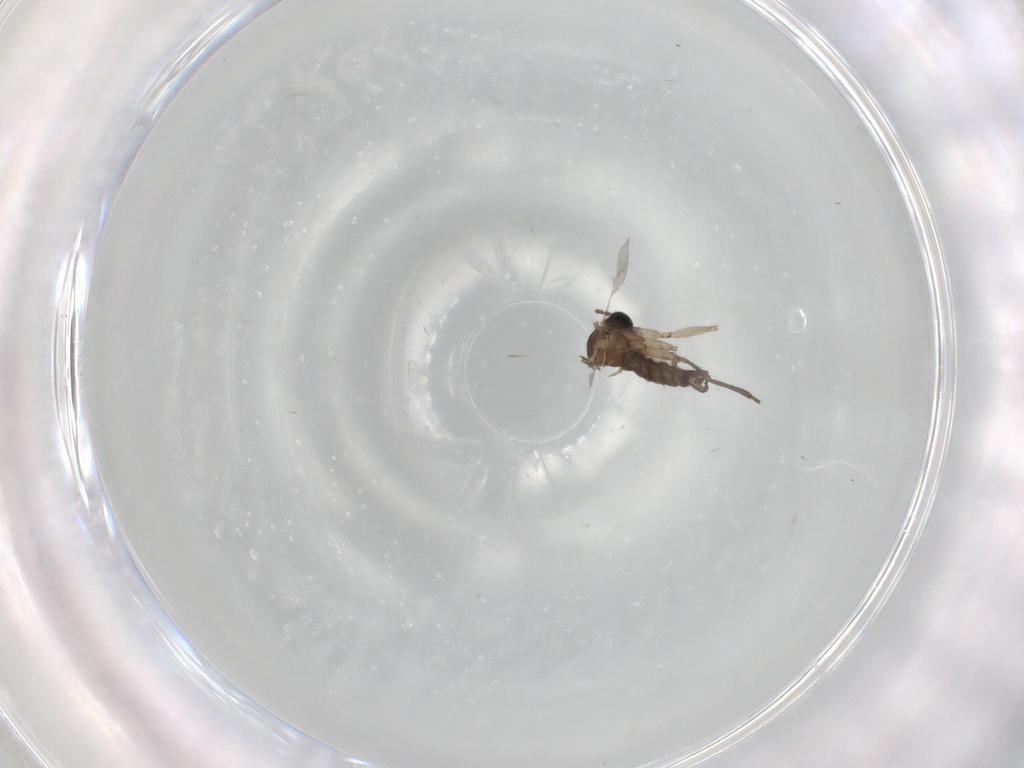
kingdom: Animalia
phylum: Arthropoda
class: Insecta
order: Diptera
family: Sciaridae
